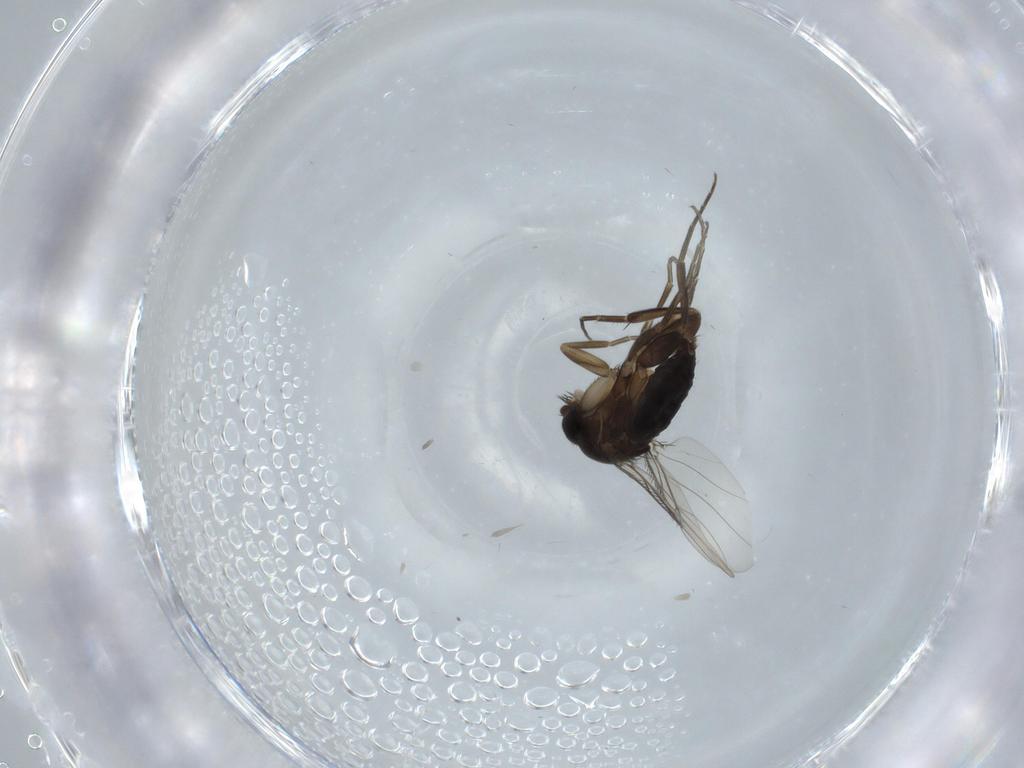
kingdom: Animalia
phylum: Arthropoda
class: Insecta
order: Diptera
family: Phoridae
